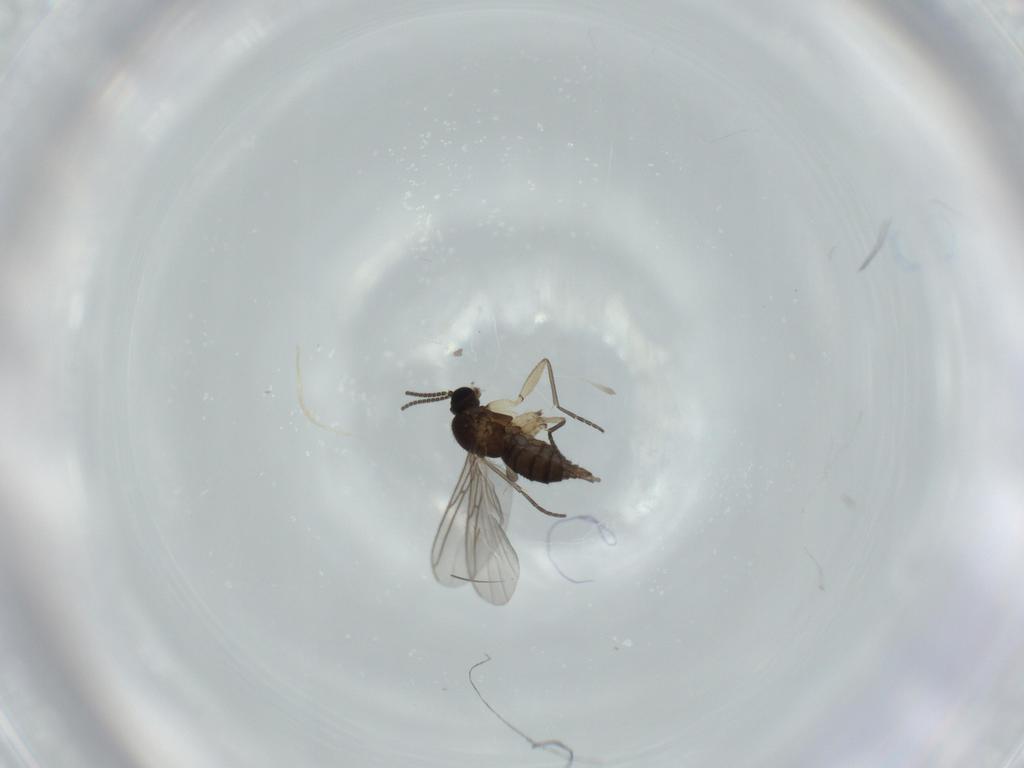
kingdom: Animalia
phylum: Arthropoda
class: Insecta
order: Diptera
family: Sciaridae
